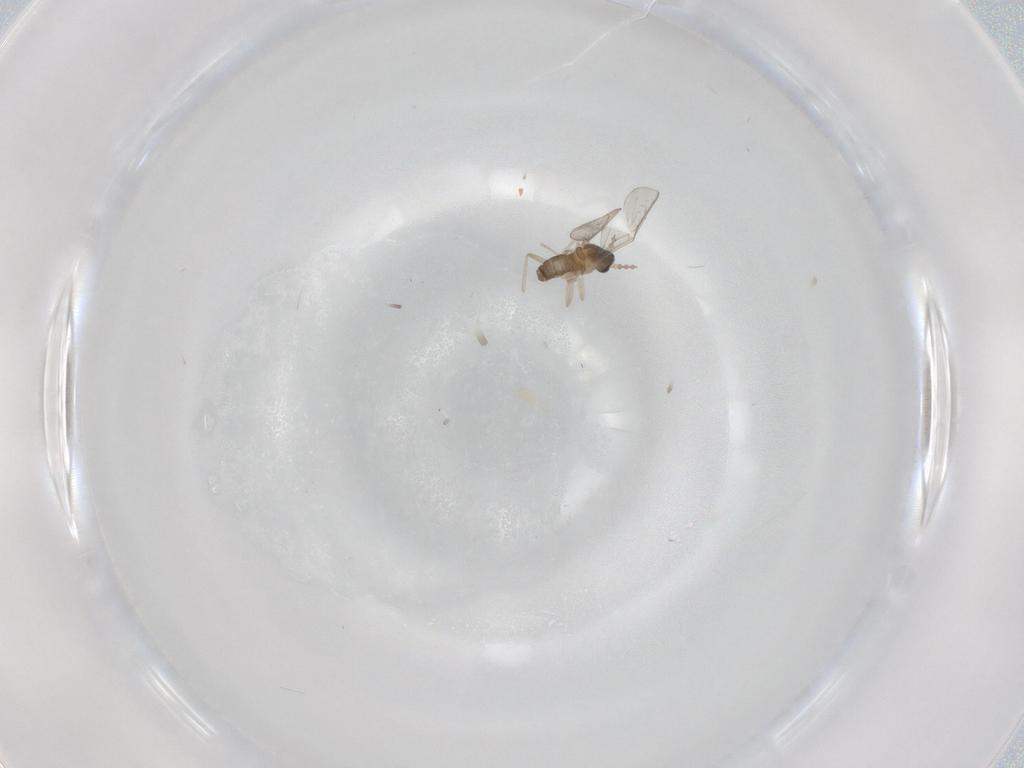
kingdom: Animalia
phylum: Arthropoda
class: Insecta
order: Diptera
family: Cecidomyiidae
